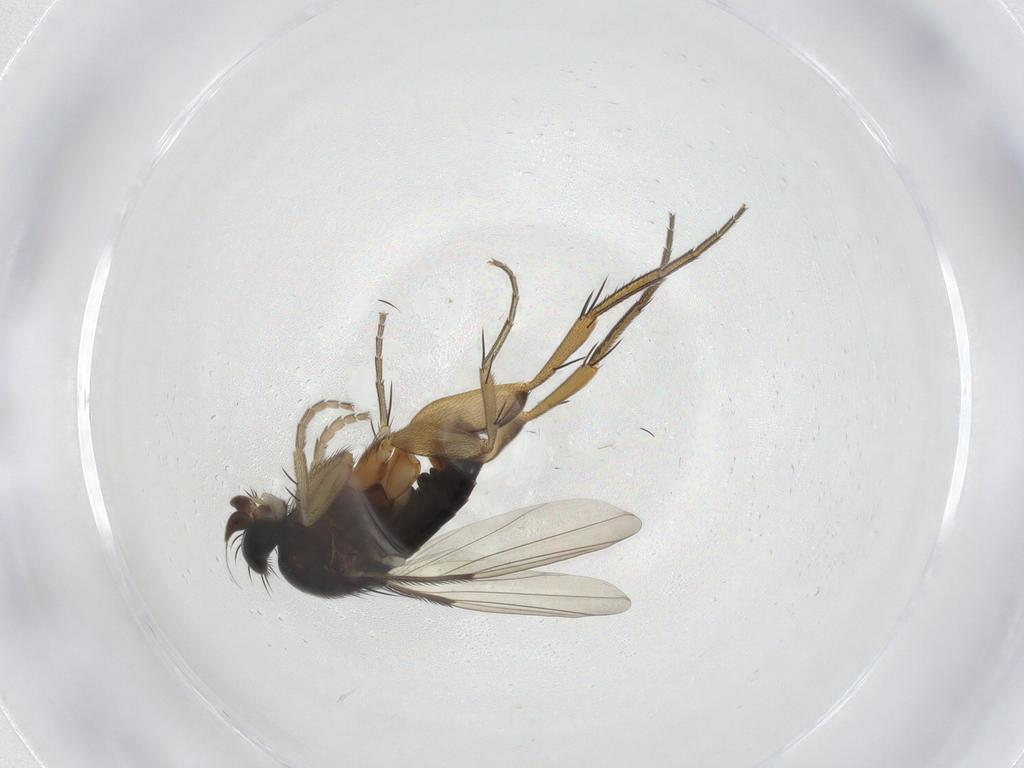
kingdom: Animalia
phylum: Arthropoda
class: Insecta
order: Diptera
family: Phoridae
